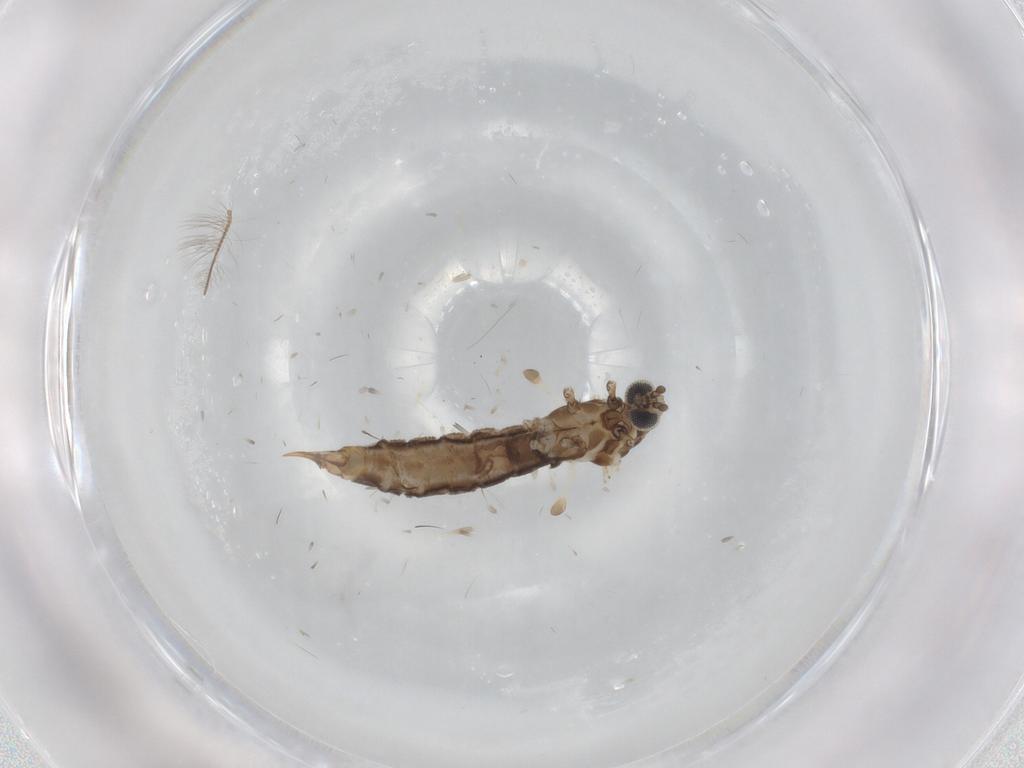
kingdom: Animalia
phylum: Arthropoda
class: Insecta
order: Diptera
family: Limoniidae
